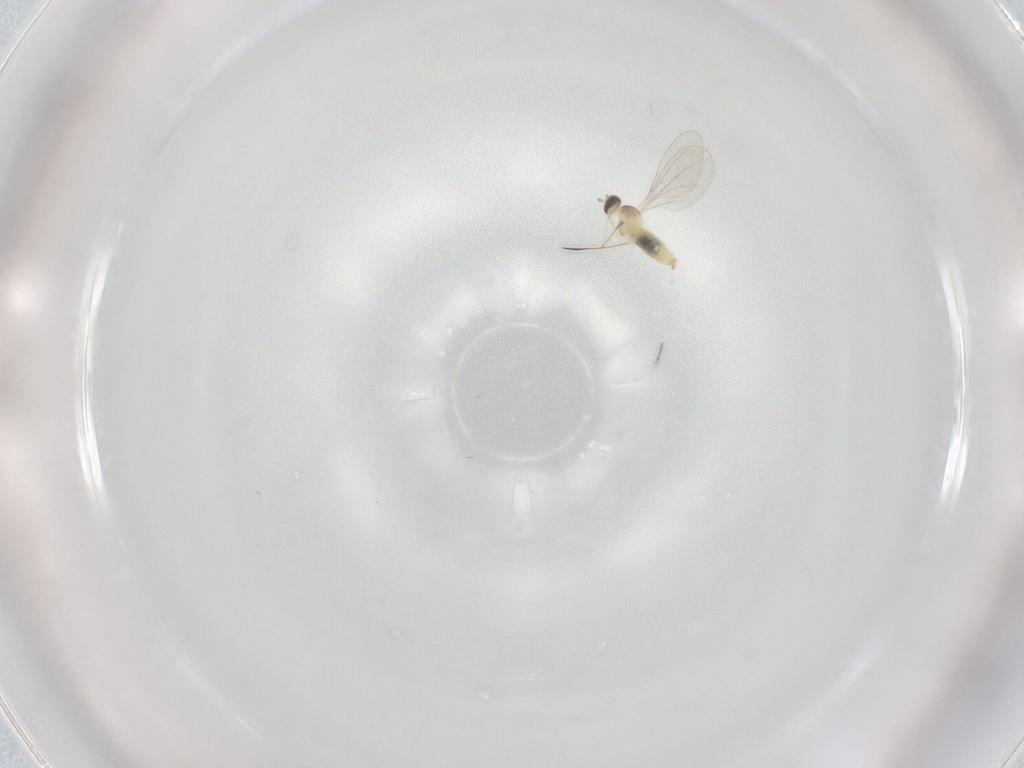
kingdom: Animalia
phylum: Arthropoda
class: Insecta
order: Diptera
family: Cecidomyiidae
